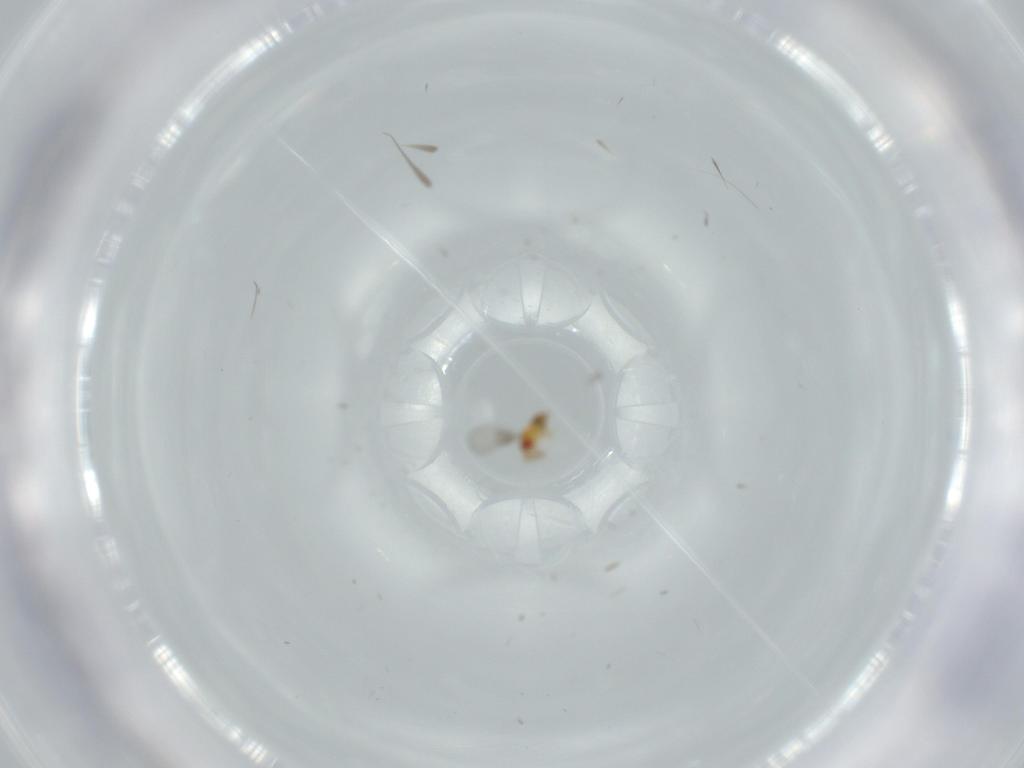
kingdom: Animalia
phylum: Arthropoda
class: Insecta
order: Hymenoptera
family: Trichogrammatidae
